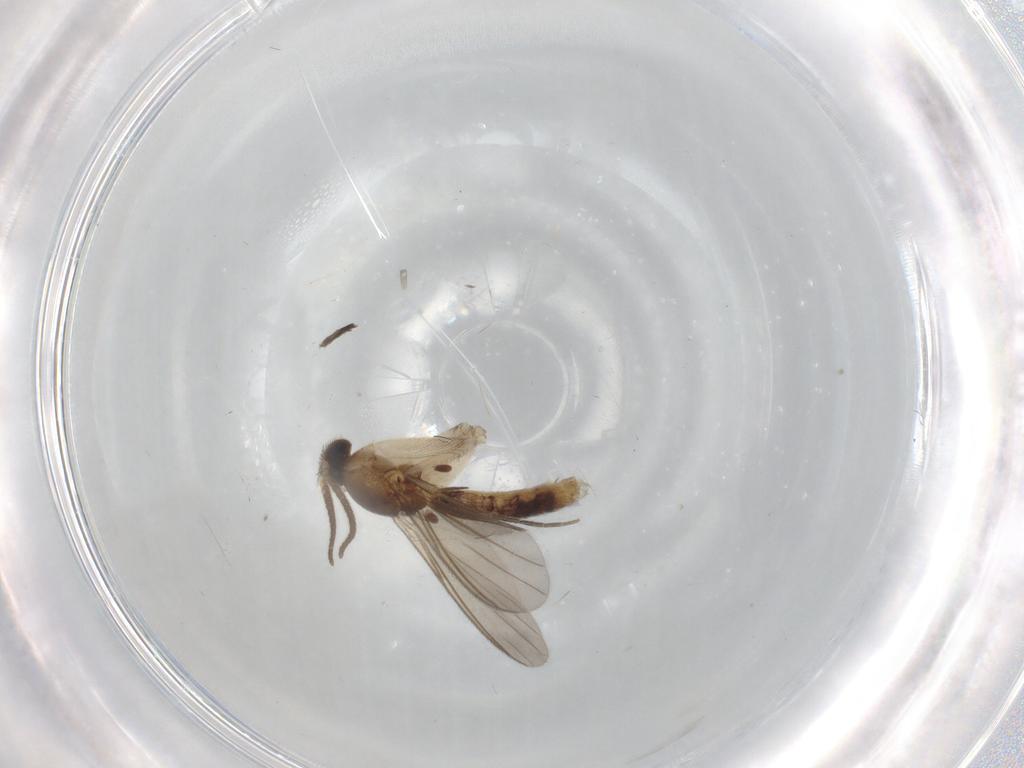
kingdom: Animalia
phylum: Arthropoda
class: Insecta
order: Diptera
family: Mycetophilidae
